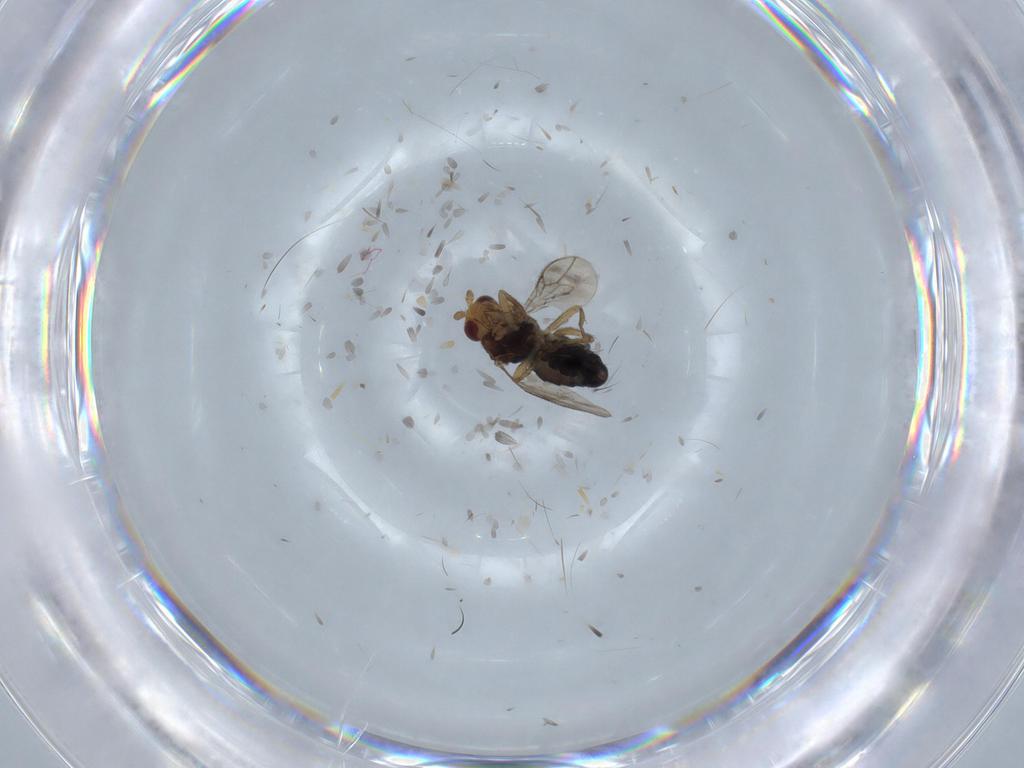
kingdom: Animalia
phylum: Arthropoda
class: Insecta
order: Diptera
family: Sphaeroceridae
